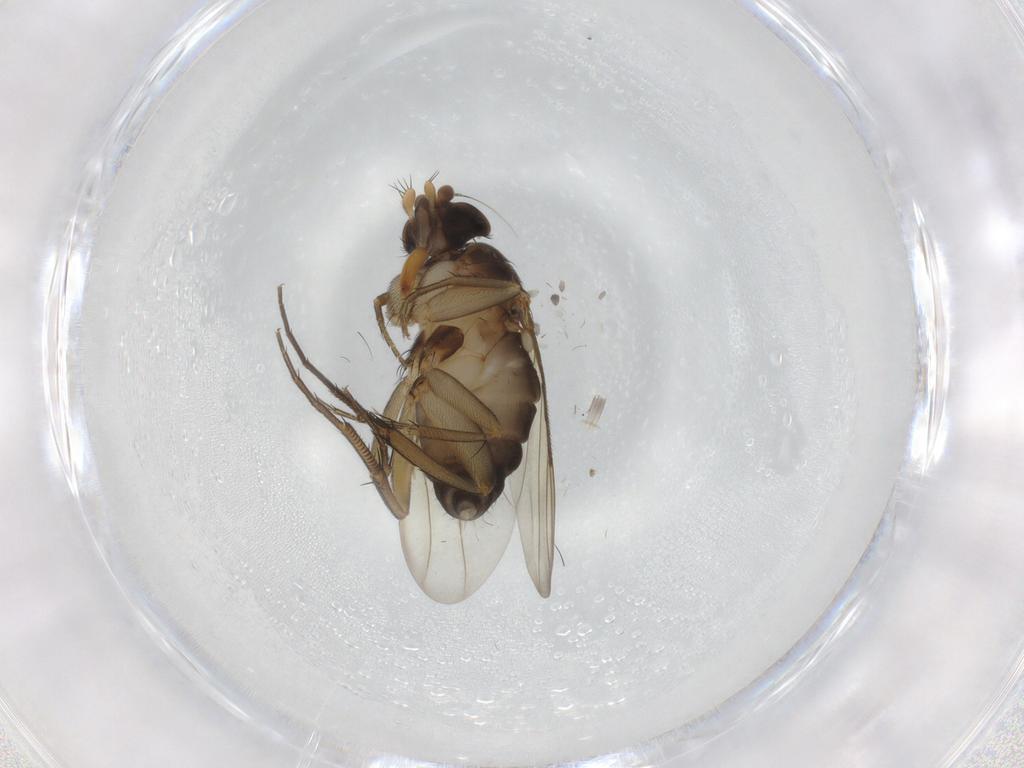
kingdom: Animalia
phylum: Arthropoda
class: Insecta
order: Diptera
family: Phoridae
